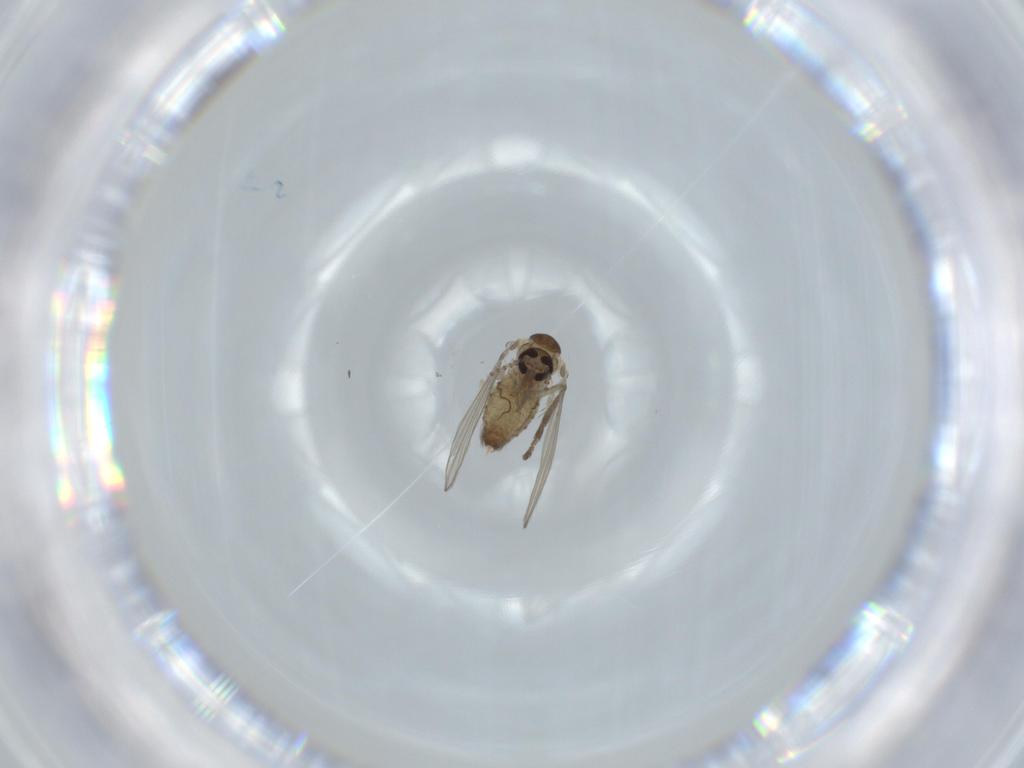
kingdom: Animalia
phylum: Arthropoda
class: Insecta
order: Diptera
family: Psychodidae
